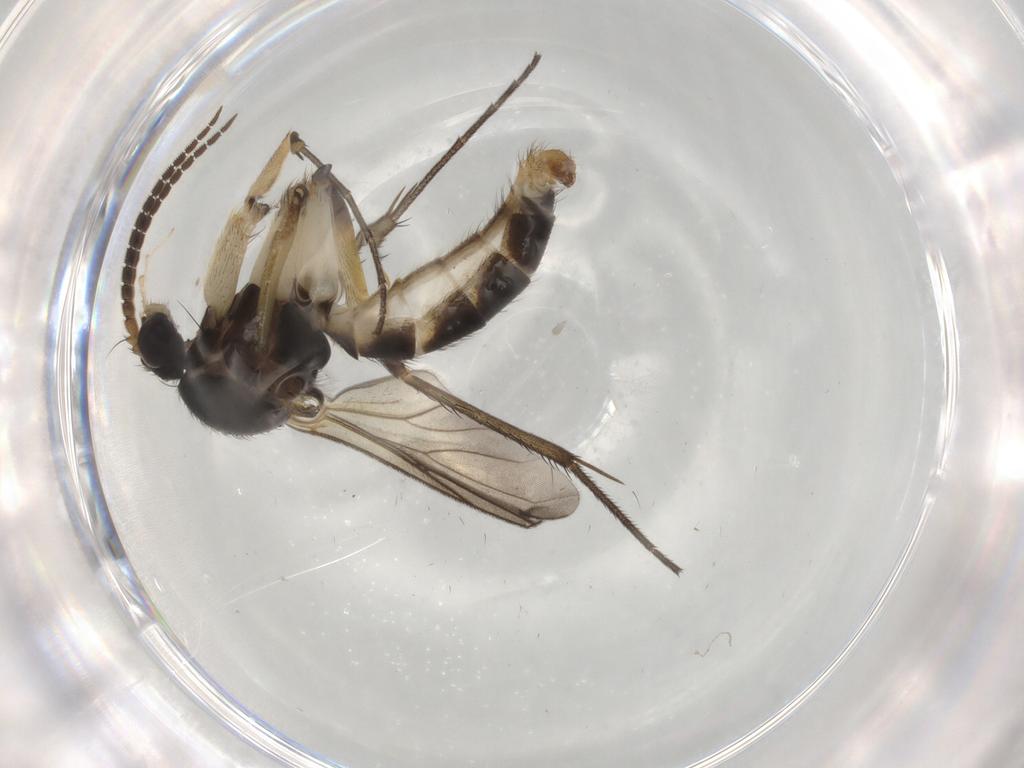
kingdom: Animalia
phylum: Arthropoda
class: Insecta
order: Diptera
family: Chironomidae
